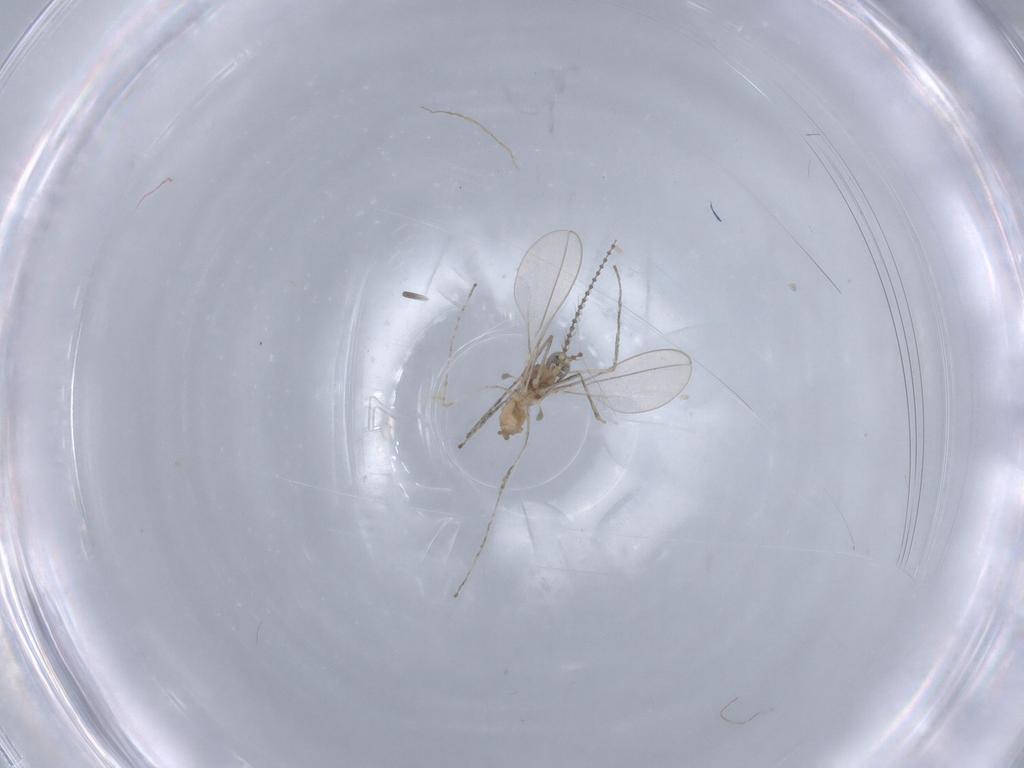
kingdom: Animalia
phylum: Arthropoda
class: Insecta
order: Diptera
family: Cecidomyiidae
